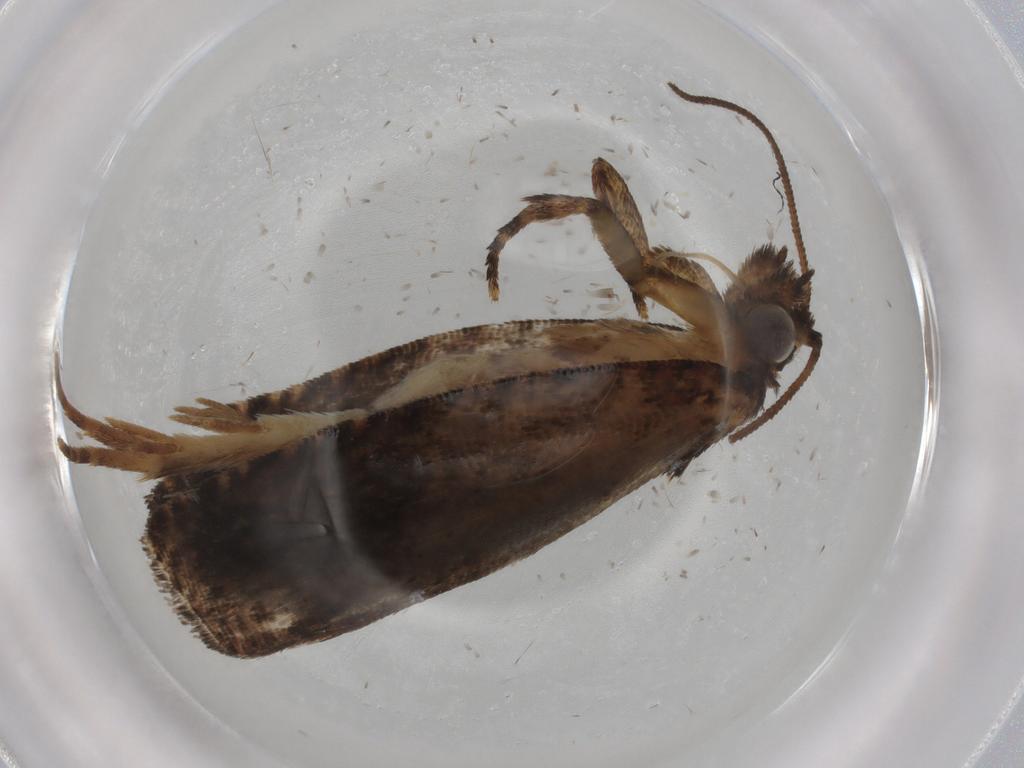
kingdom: Animalia
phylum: Arthropoda
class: Insecta
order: Lepidoptera
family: Tortricidae
